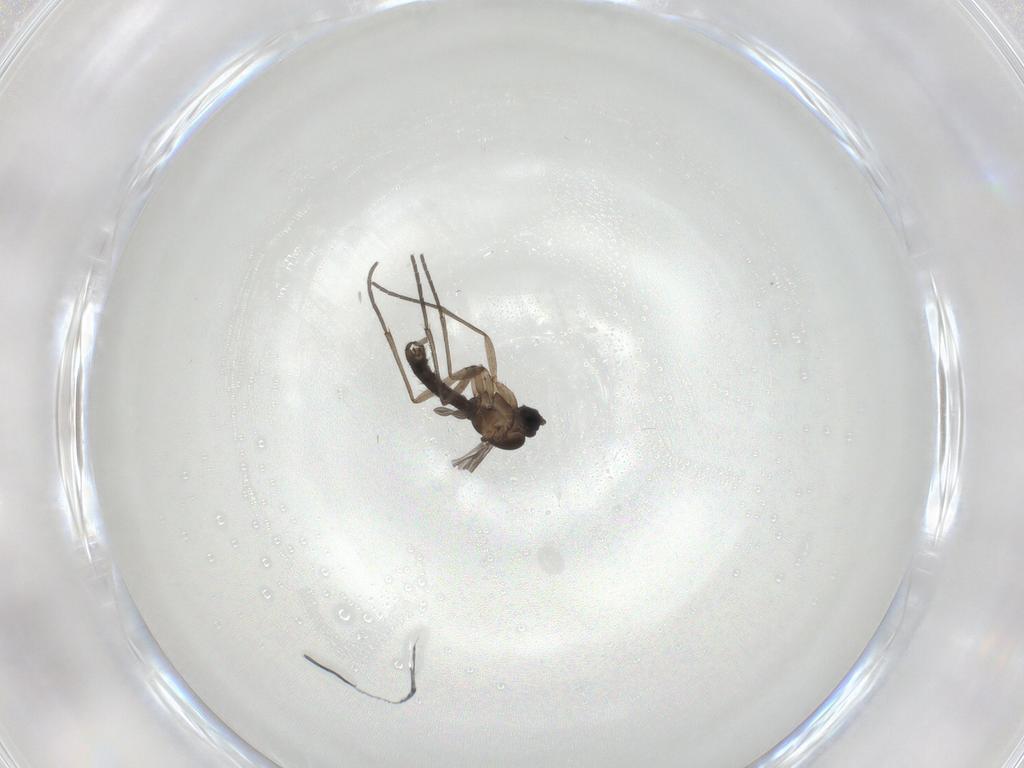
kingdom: Animalia
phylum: Arthropoda
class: Insecta
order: Diptera
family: Sciaridae
